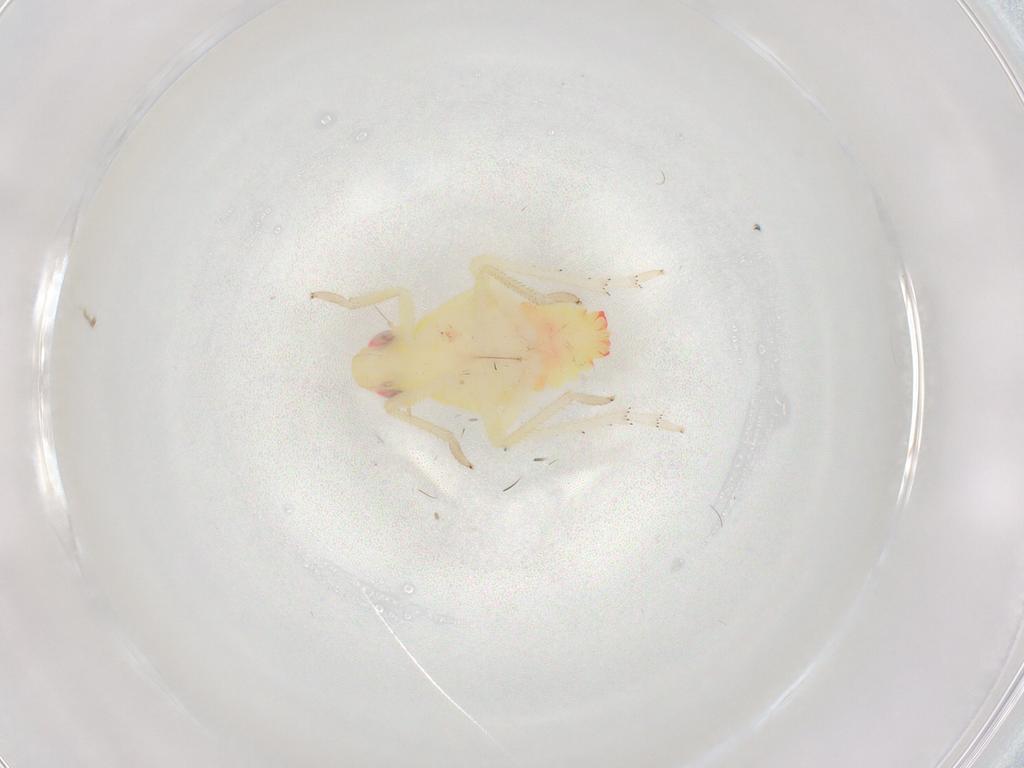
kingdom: Animalia
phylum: Arthropoda
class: Insecta
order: Hemiptera
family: Tropiduchidae
